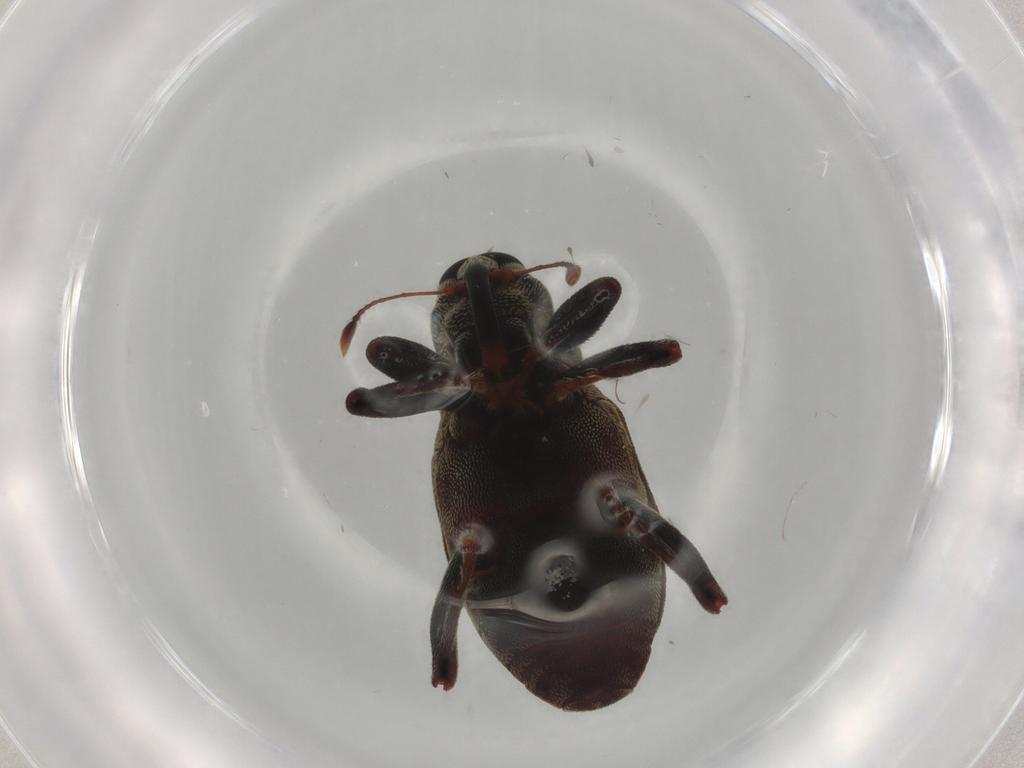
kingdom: Animalia
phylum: Arthropoda
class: Insecta
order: Coleoptera
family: Curculionidae
